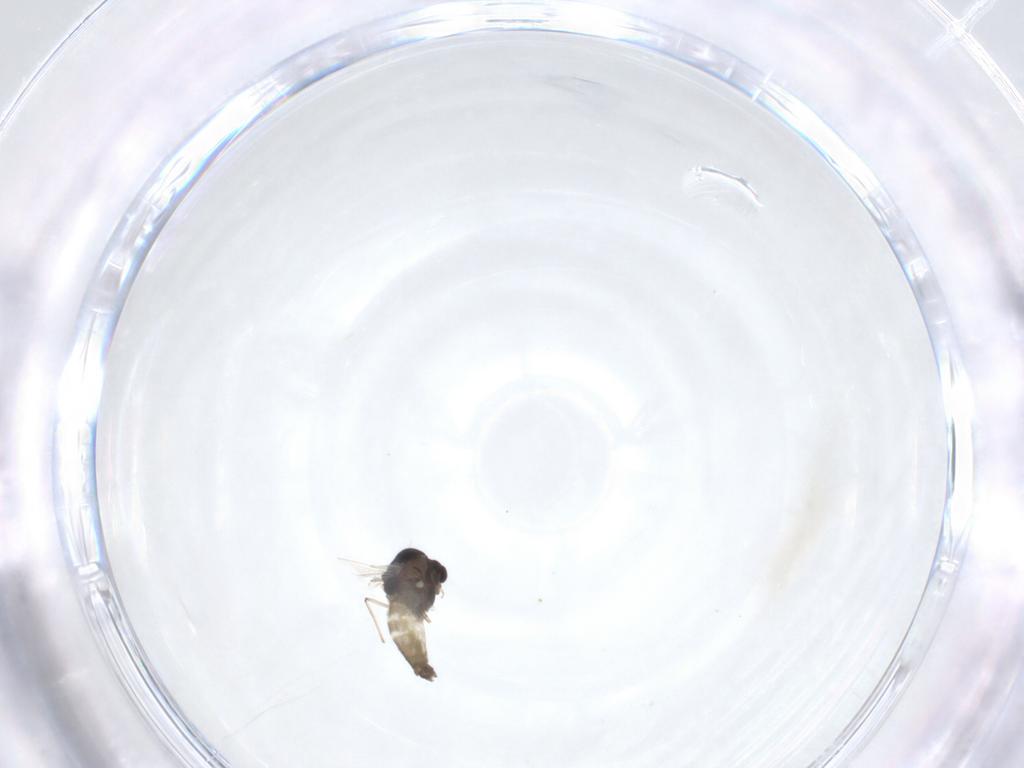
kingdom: Animalia
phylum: Arthropoda
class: Insecta
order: Diptera
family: Chironomidae
